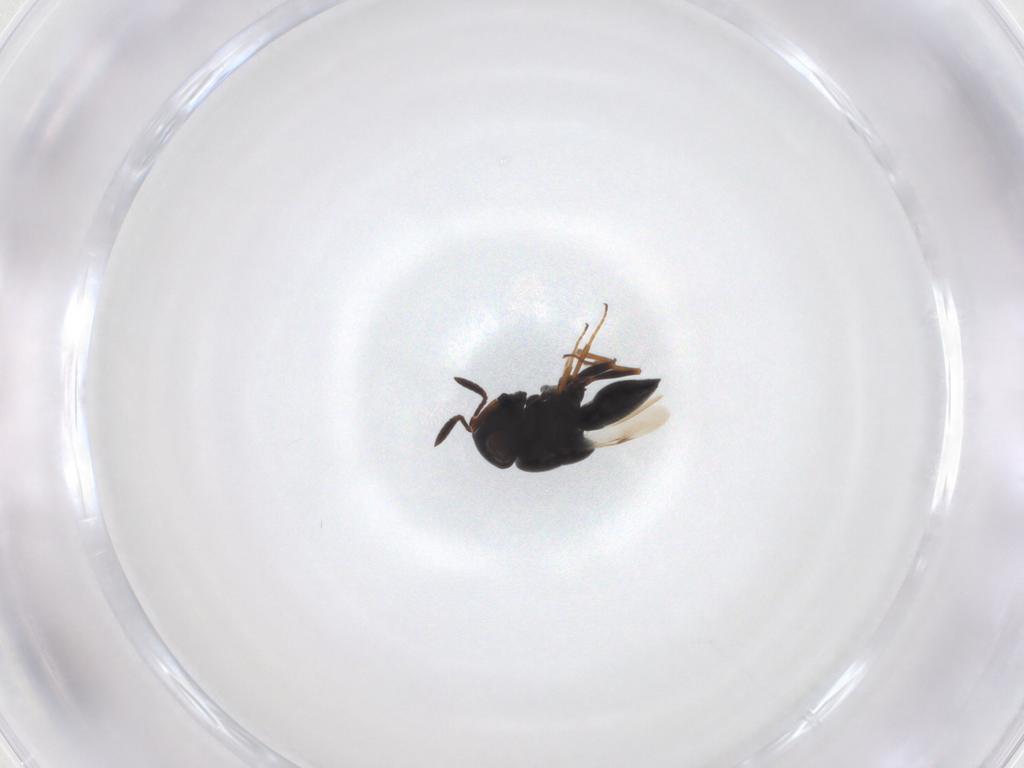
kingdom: Animalia
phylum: Arthropoda
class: Insecta
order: Hymenoptera
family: Scelionidae
